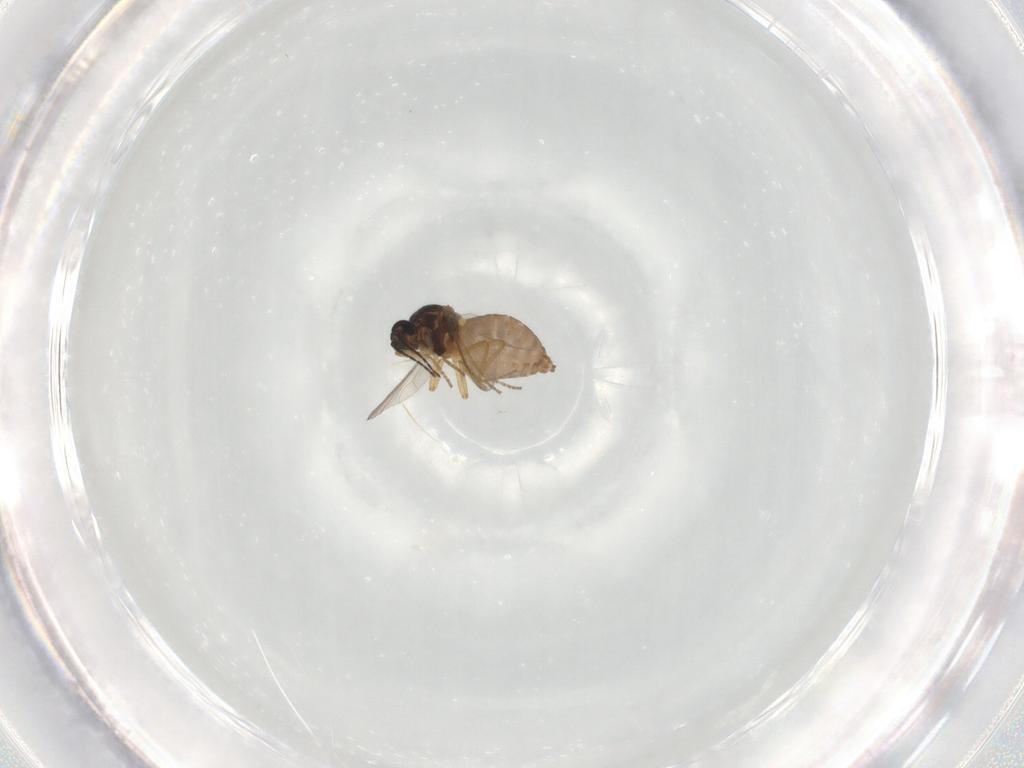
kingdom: Animalia
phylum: Arthropoda
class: Insecta
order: Diptera
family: Ceratopogonidae
